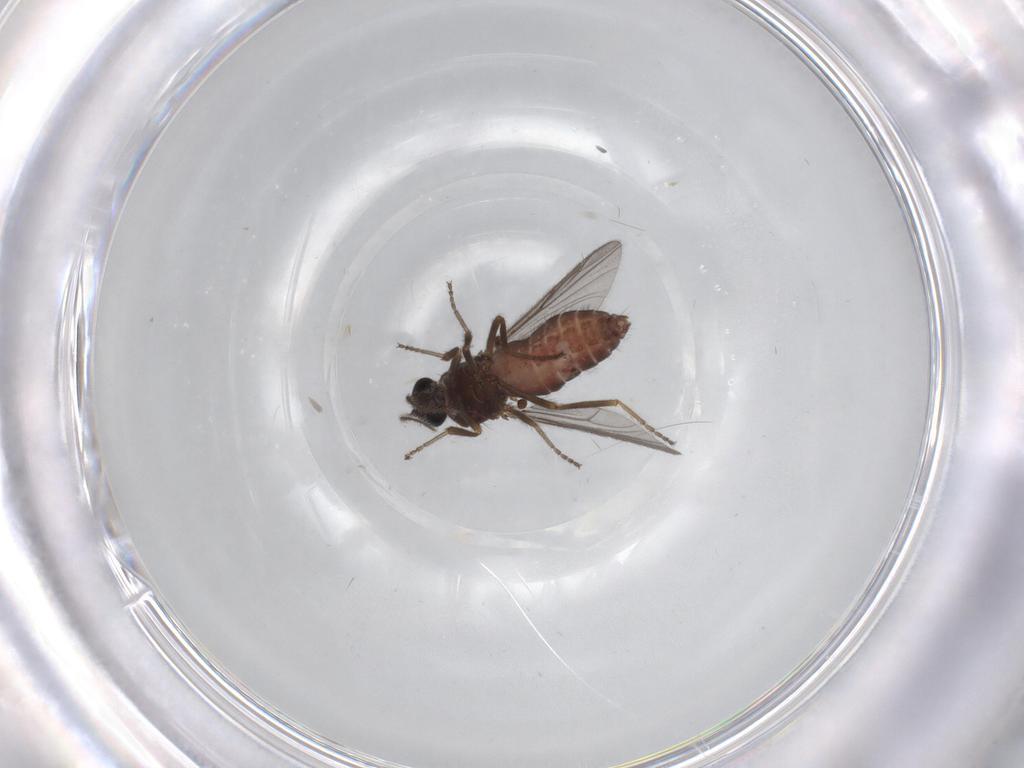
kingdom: Animalia
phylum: Arthropoda
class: Insecta
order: Diptera
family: Ceratopogonidae
